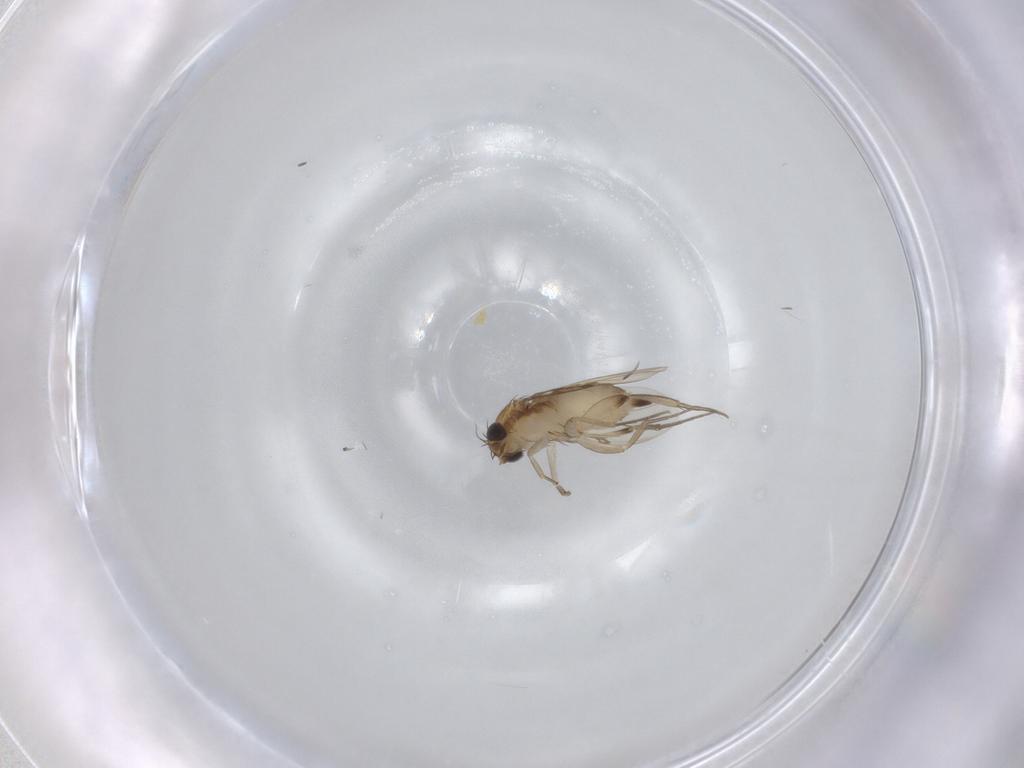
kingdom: Animalia
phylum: Arthropoda
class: Insecta
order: Diptera
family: Phoridae
